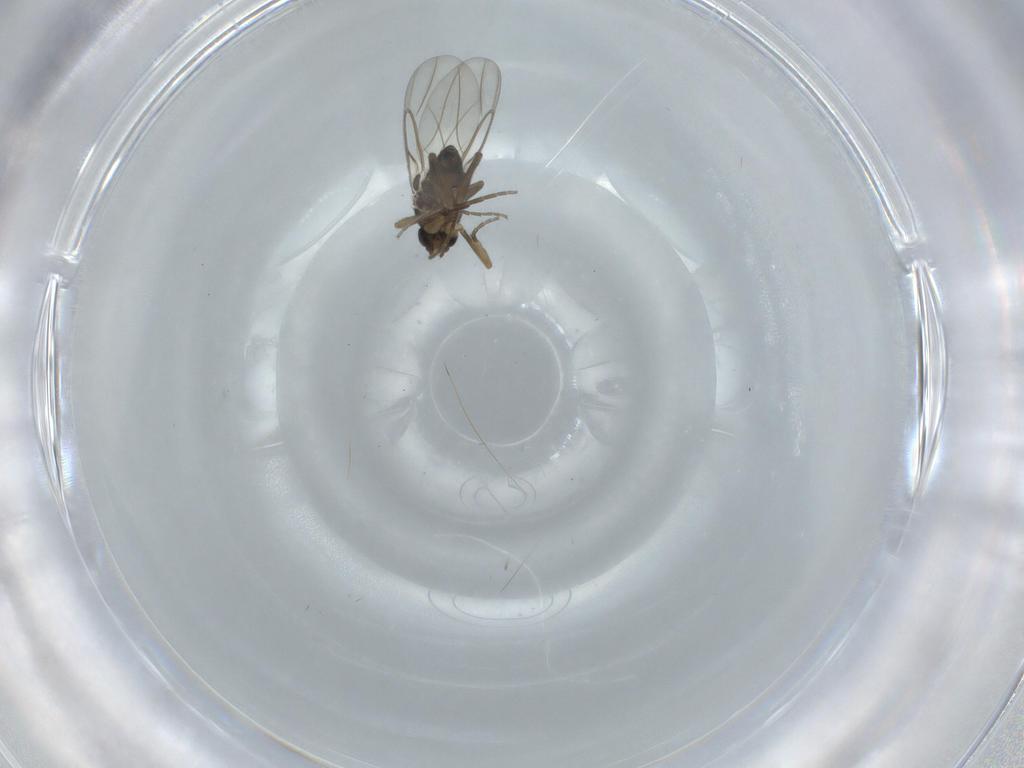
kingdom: Animalia
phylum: Arthropoda
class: Insecta
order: Diptera
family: Phoridae
